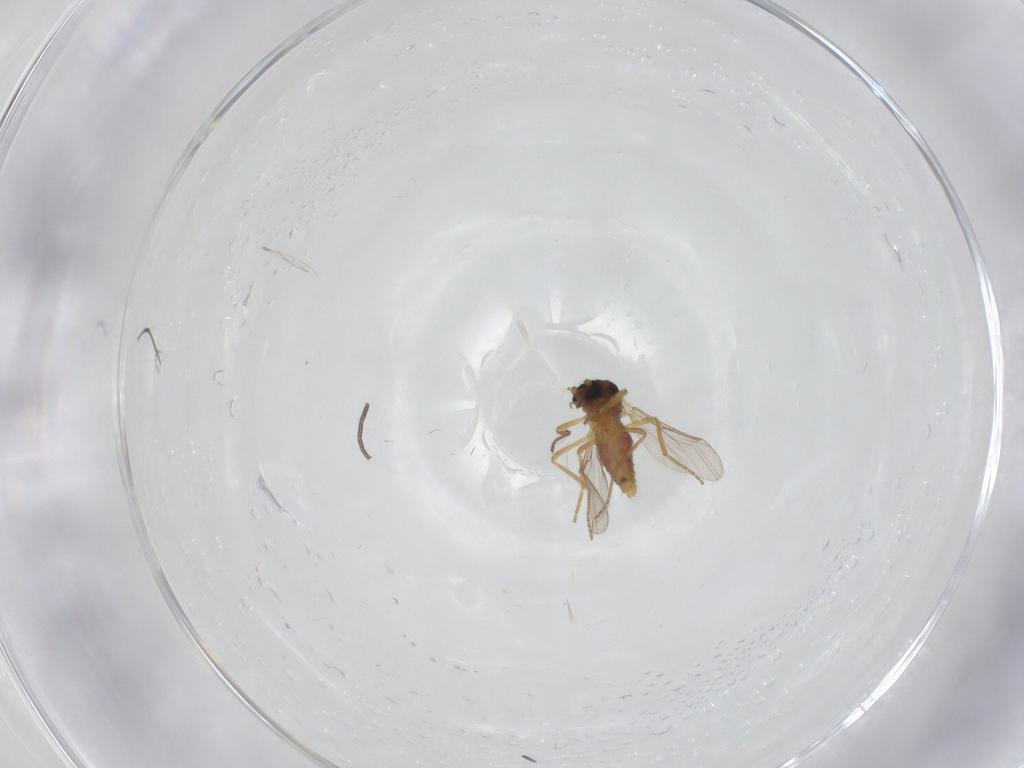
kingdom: Animalia
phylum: Arthropoda
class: Insecta
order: Diptera
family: Ceratopogonidae
